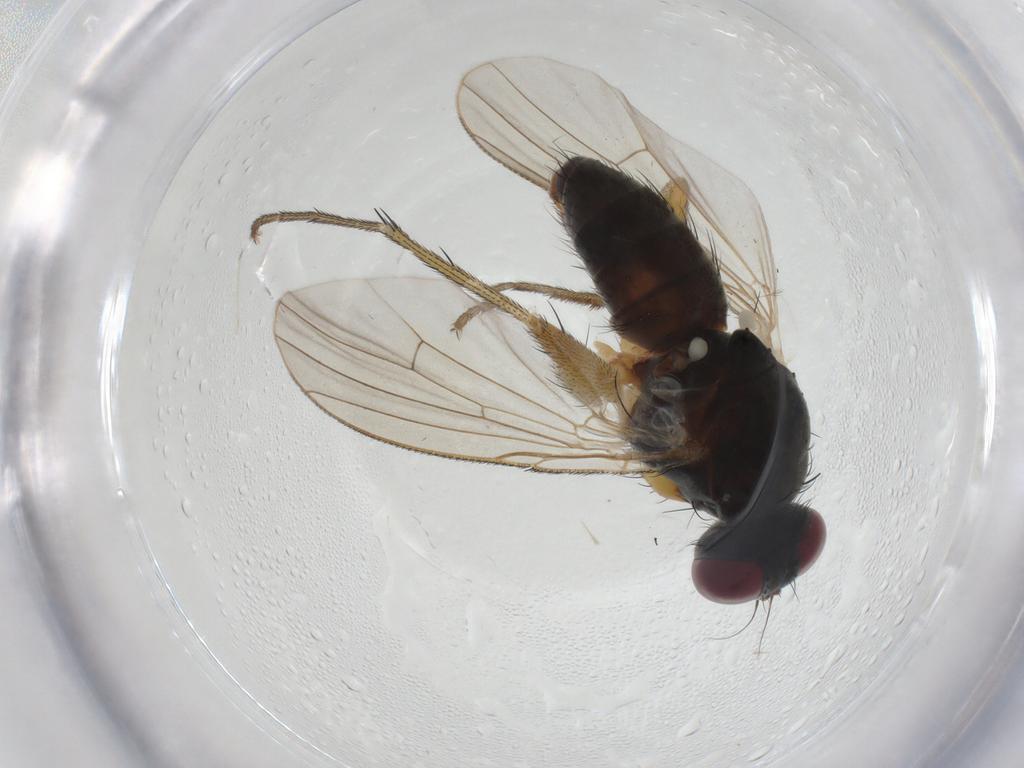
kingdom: Animalia
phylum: Arthropoda
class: Insecta
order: Diptera
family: Muscidae
